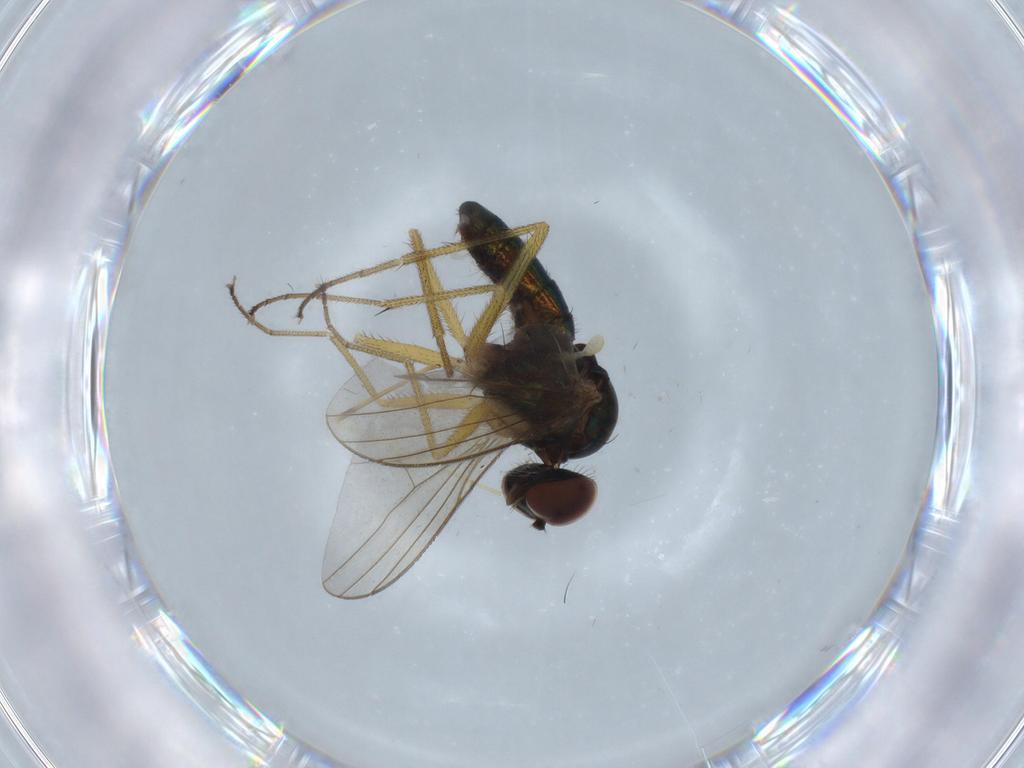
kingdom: Animalia
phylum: Arthropoda
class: Insecta
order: Diptera
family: Dolichopodidae
